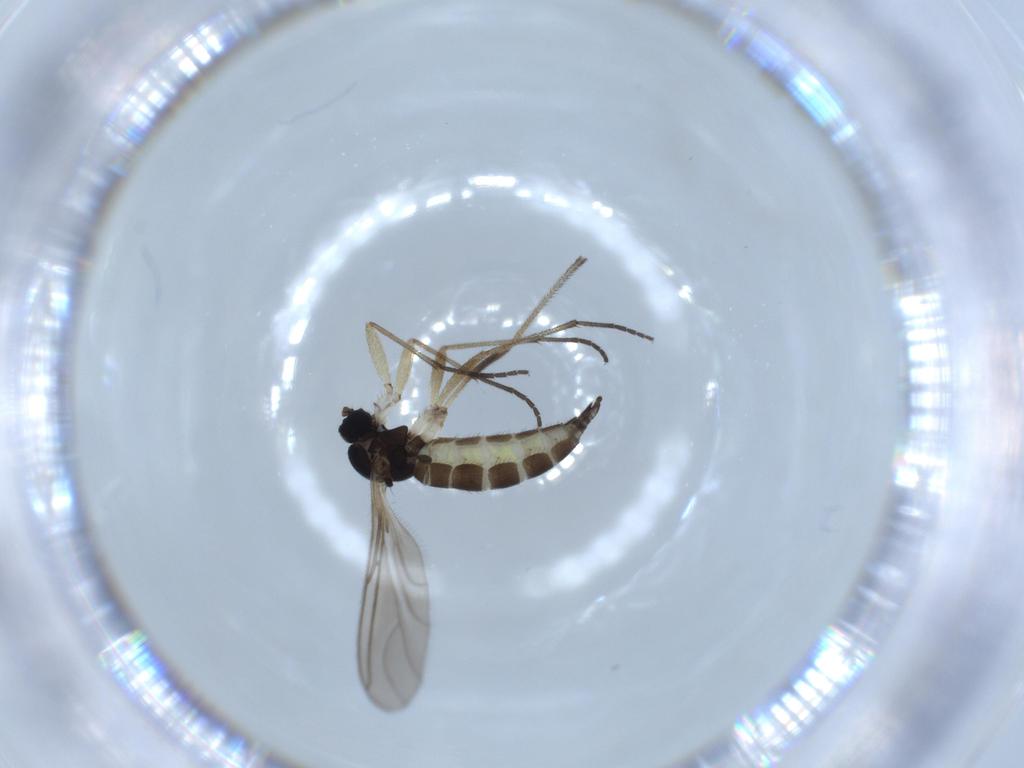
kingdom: Animalia
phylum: Arthropoda
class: Insecta
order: Diptera
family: Sciaridae
